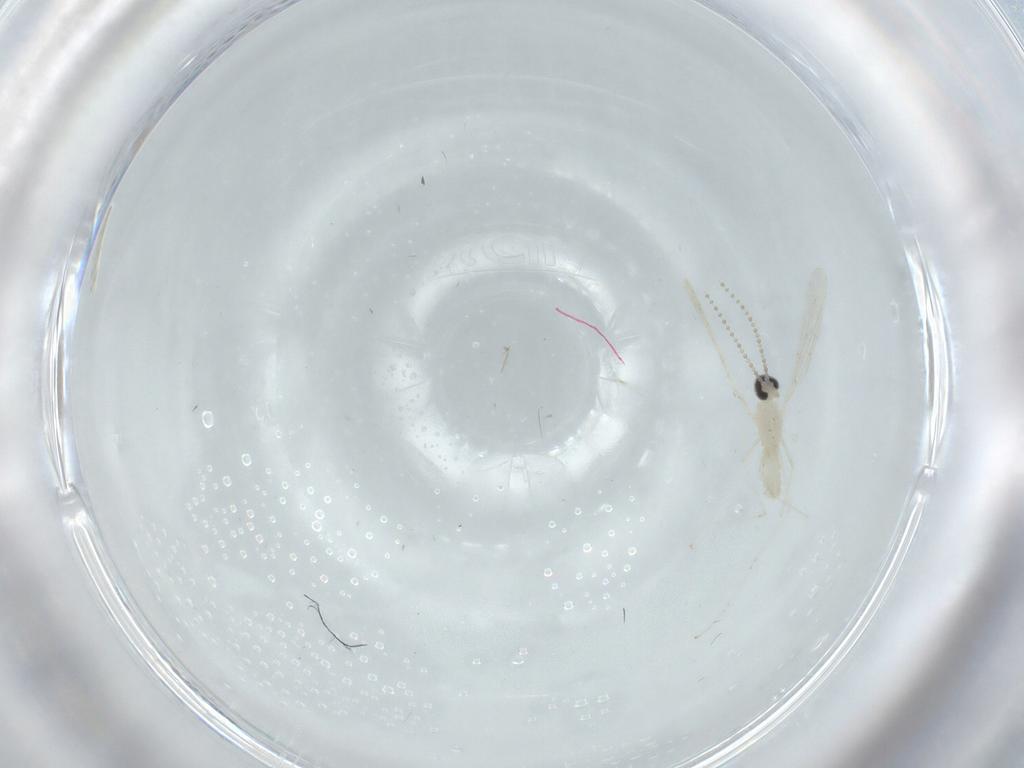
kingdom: Animalia
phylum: Arthropoda
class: Insecta
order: Diptera
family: Cecidomyiidae
